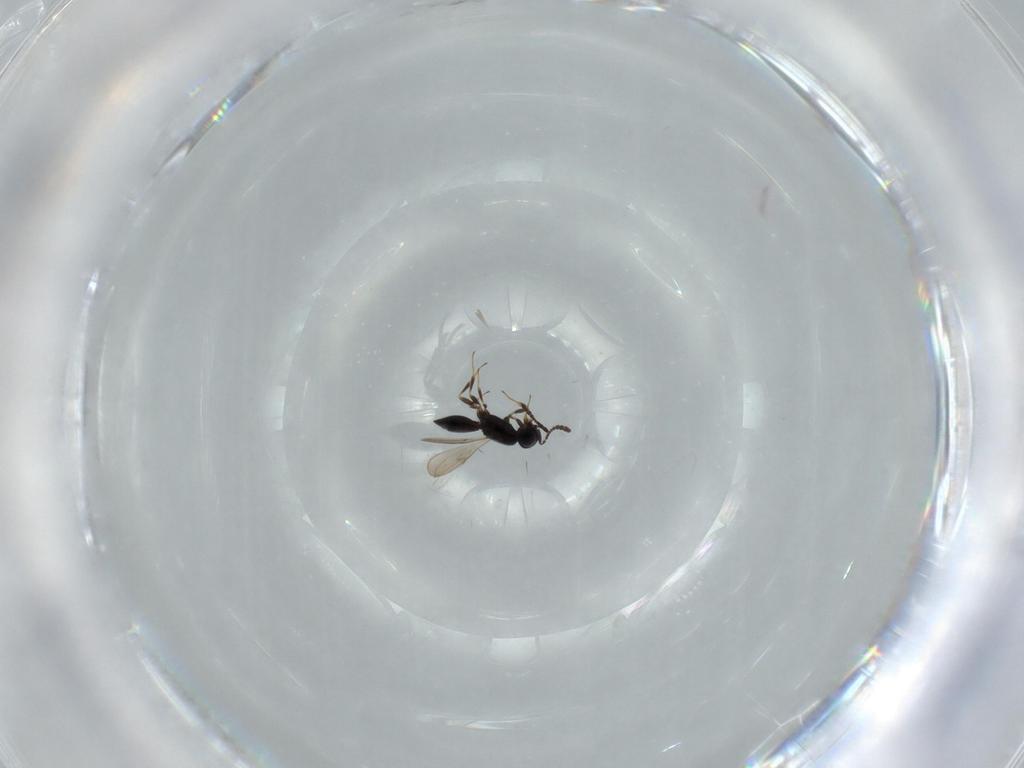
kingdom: Animalia
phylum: Arthropoda
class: Insecta
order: Hymenoptera
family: Scelionidae
